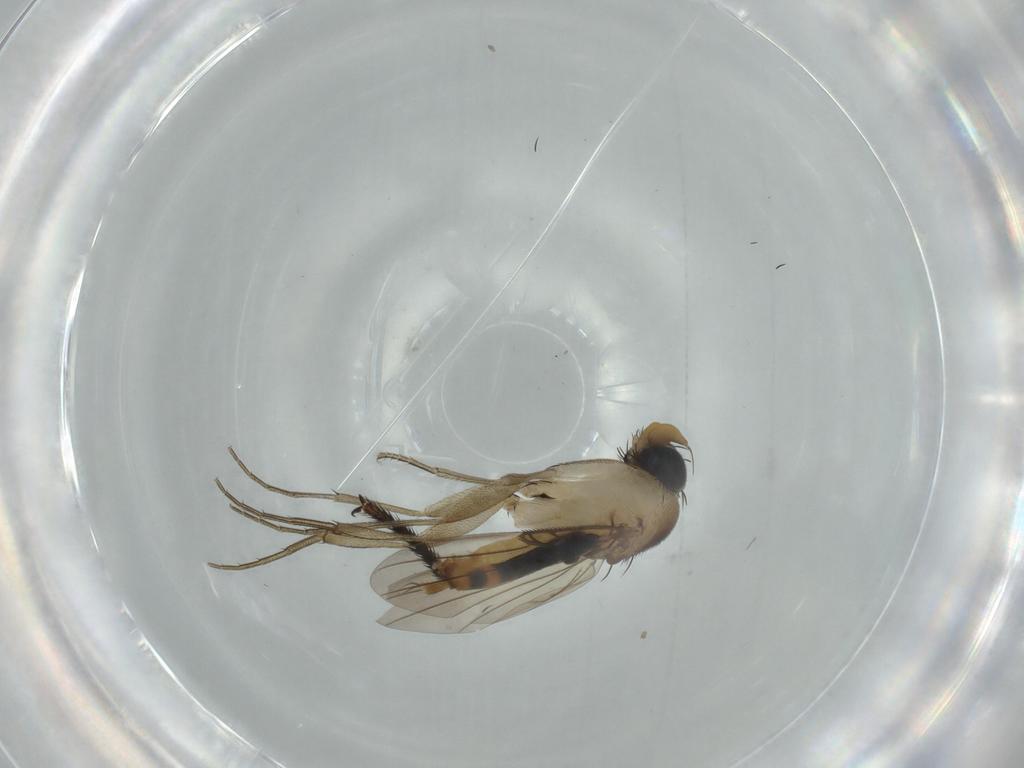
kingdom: Animalia
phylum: Arthropoda
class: Insecta
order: Diptera
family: Phoridae
